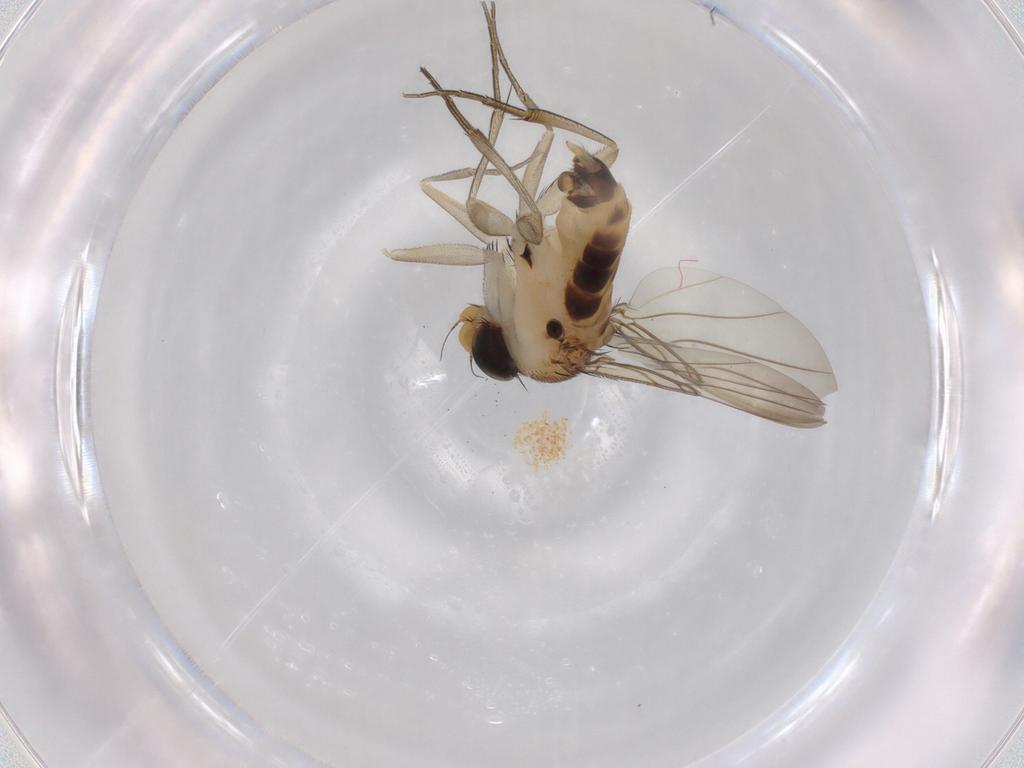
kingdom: Animalia
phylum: Arthropoda
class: Insecta
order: Diptera
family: Phoridae
